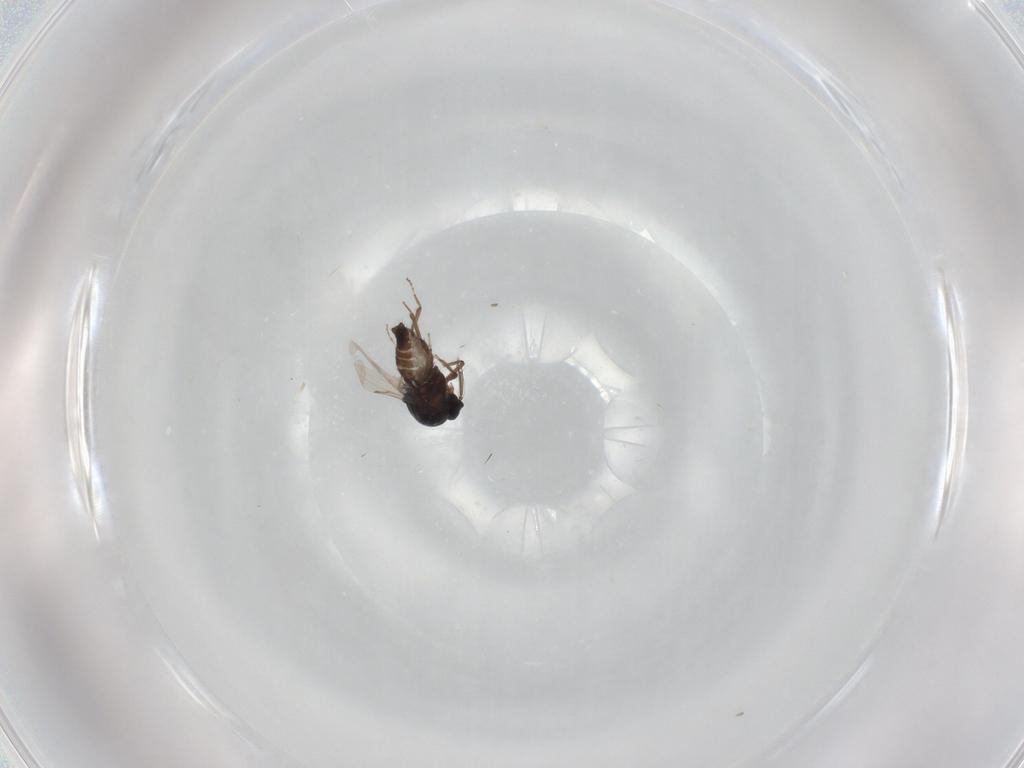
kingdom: Animalia
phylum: Arthropoda
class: Insecta
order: Diptera
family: Ceratopogonidae
